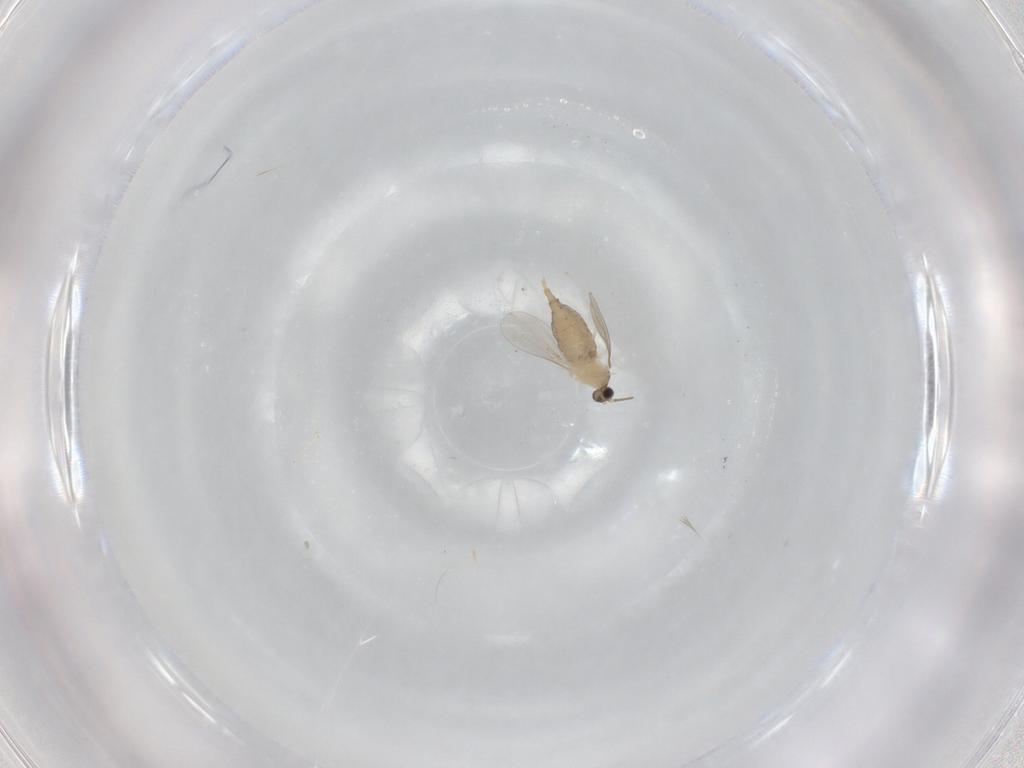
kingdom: Animalia
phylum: Arthropoda
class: Insecta
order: Diptera
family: Cecidomyiidae
